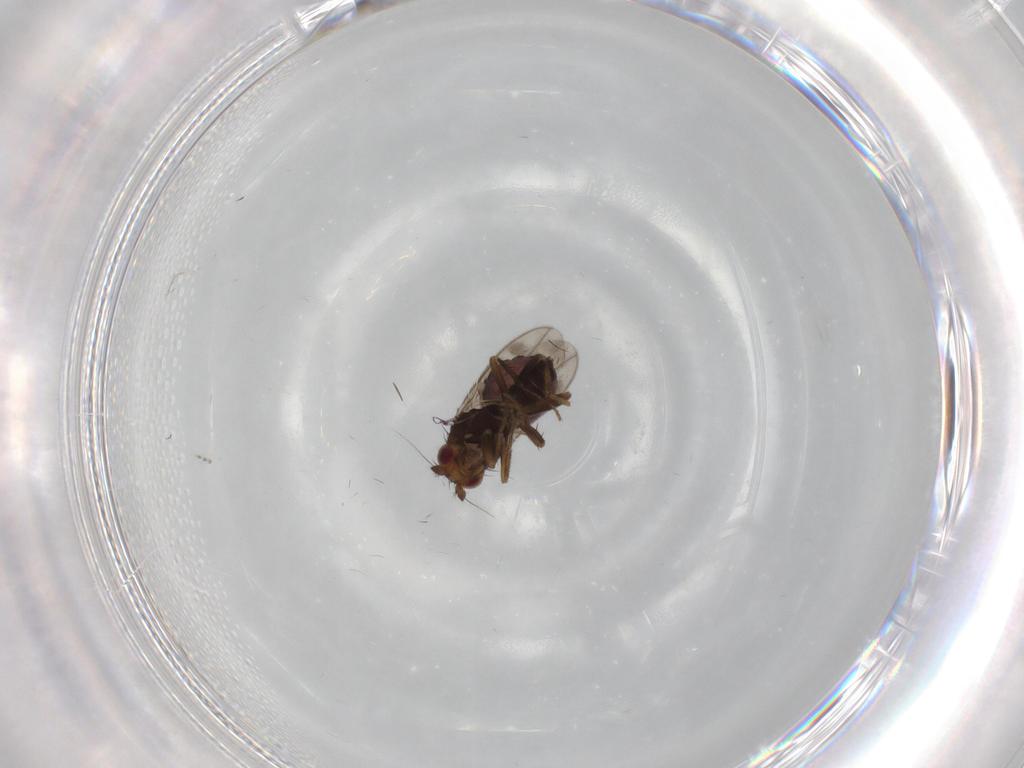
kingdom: Animalia
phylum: Arthropoda
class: Insecta
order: Diptera
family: Sphaeroceridae
